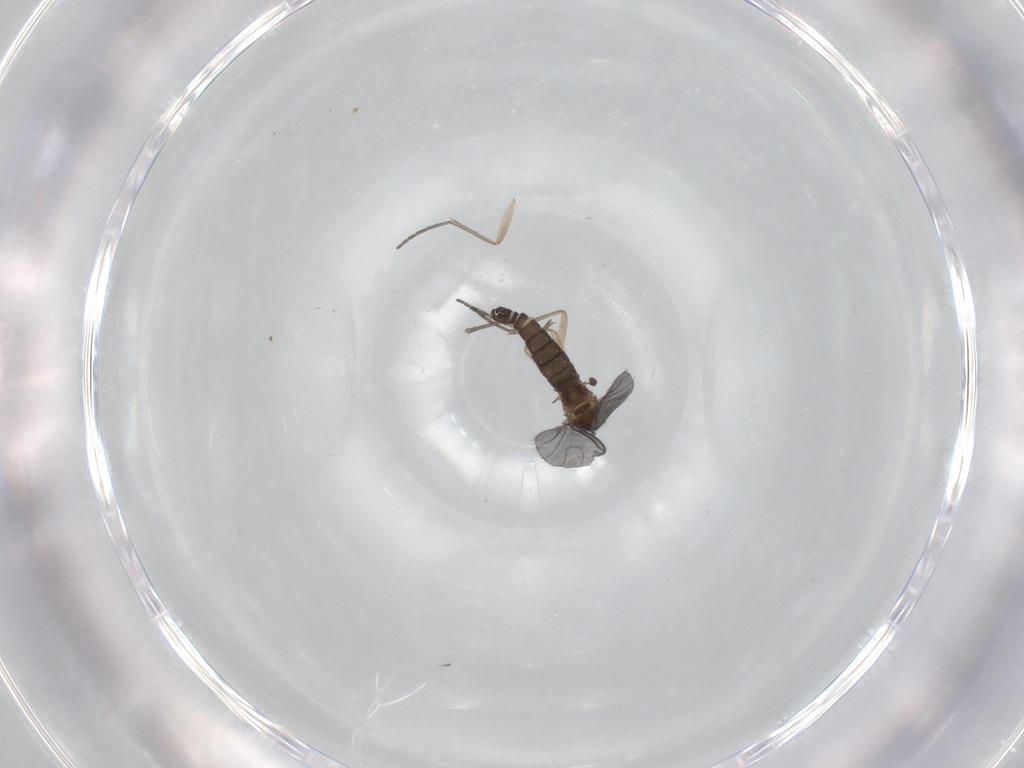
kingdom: Animalia
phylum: Arthropoda
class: Insecta
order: Diptera
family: Sciaridae
